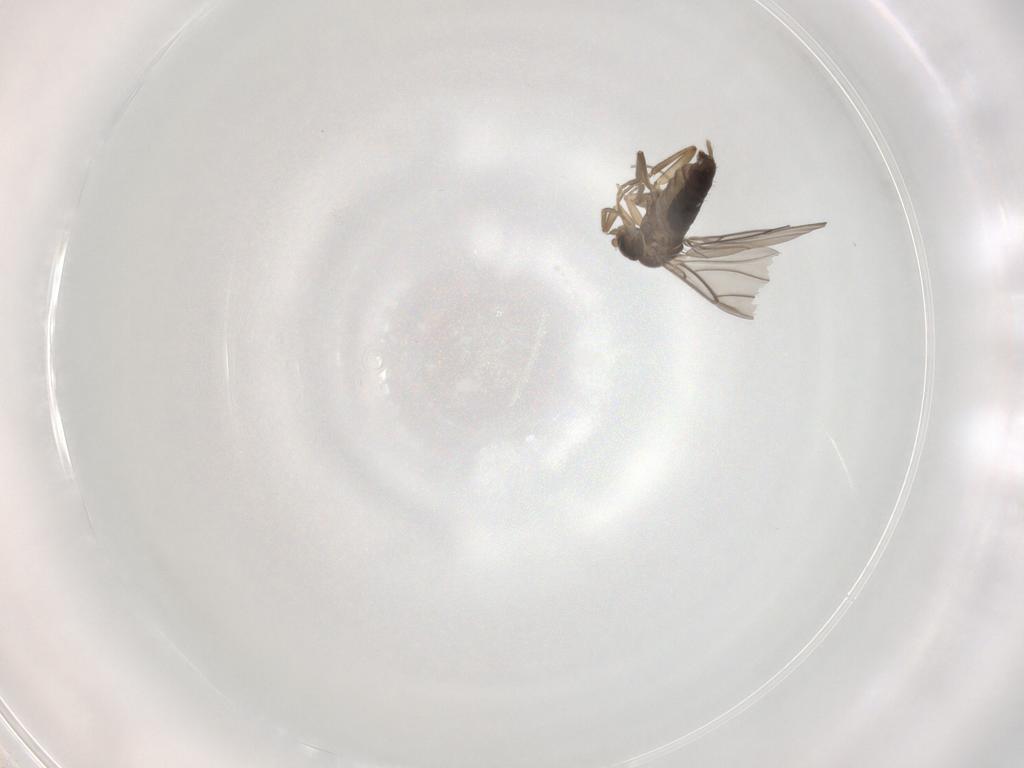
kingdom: Animalia
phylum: Arthropoda
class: Insecta
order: Diptera
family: Phoridae
